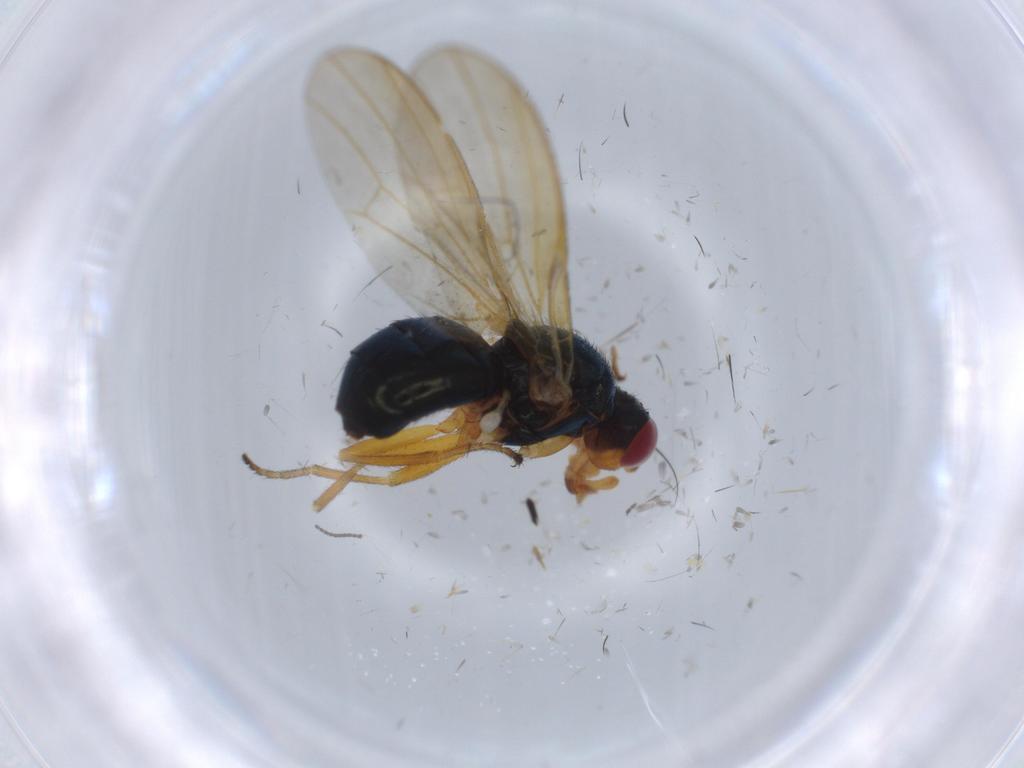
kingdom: Animalia
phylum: Arthropoda
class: Insecta
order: Diptera
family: Piophilidae
